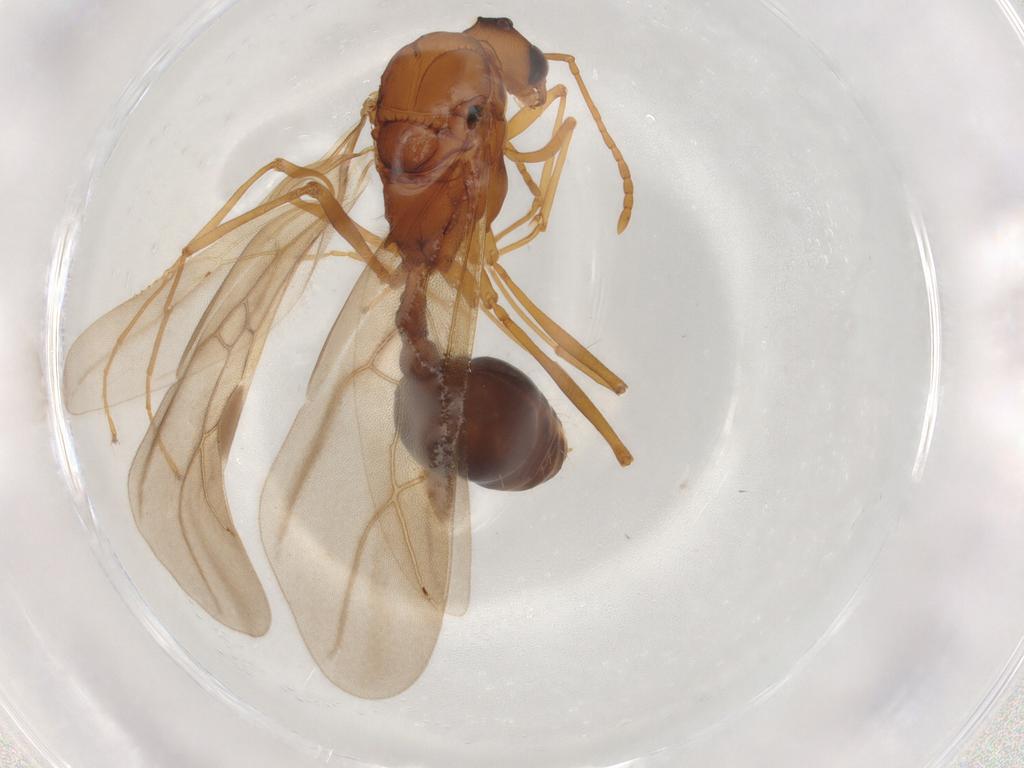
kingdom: Animalia
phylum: Arthropoda
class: Insecta
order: Hymenoptera
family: Formicidae
